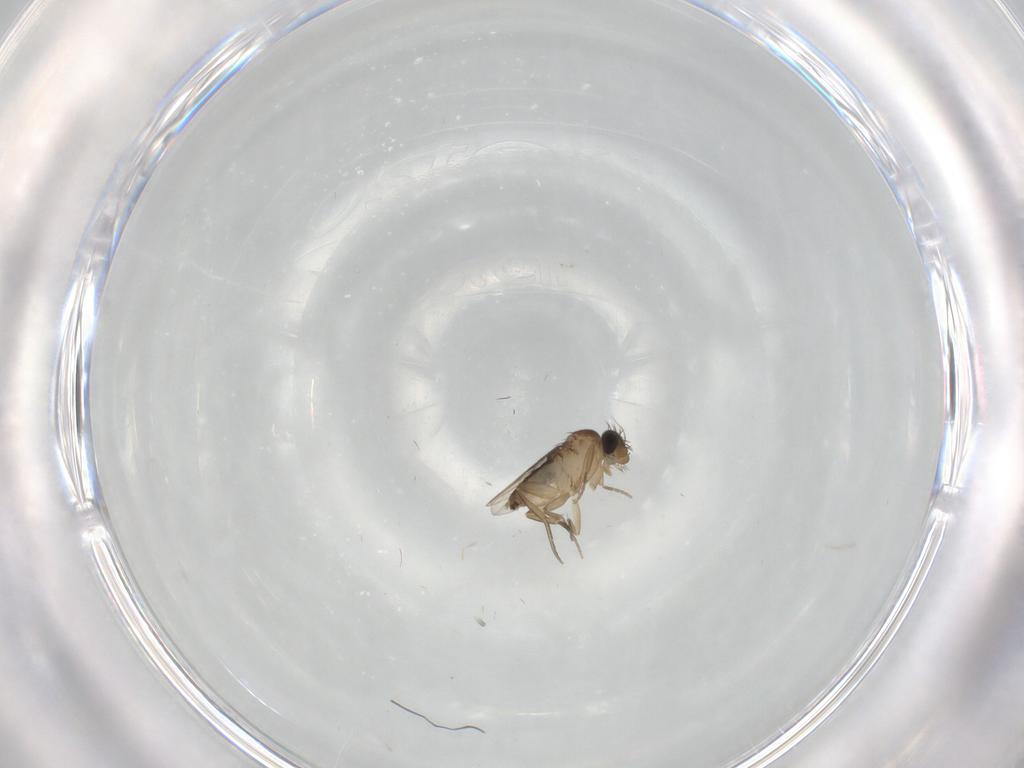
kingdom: Animalia
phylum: Arthropoda
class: Insecta
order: Diptera
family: Phoridae
